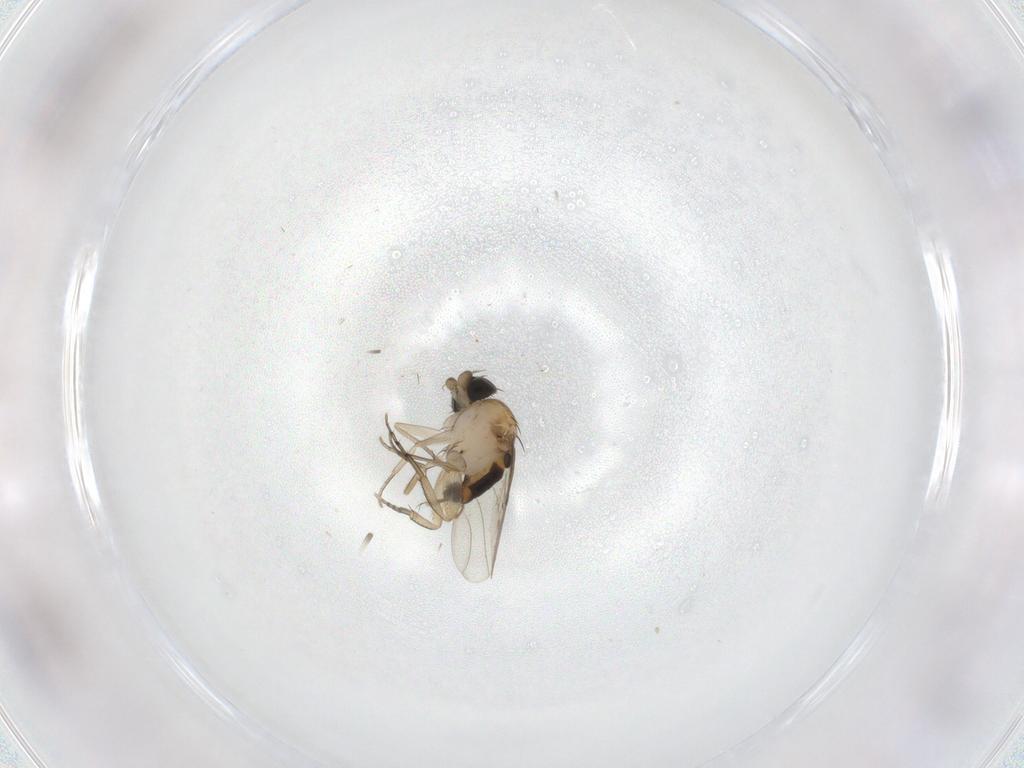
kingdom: Animalia
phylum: Arthropoda
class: Insecta
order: Diptera
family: Phoridae
